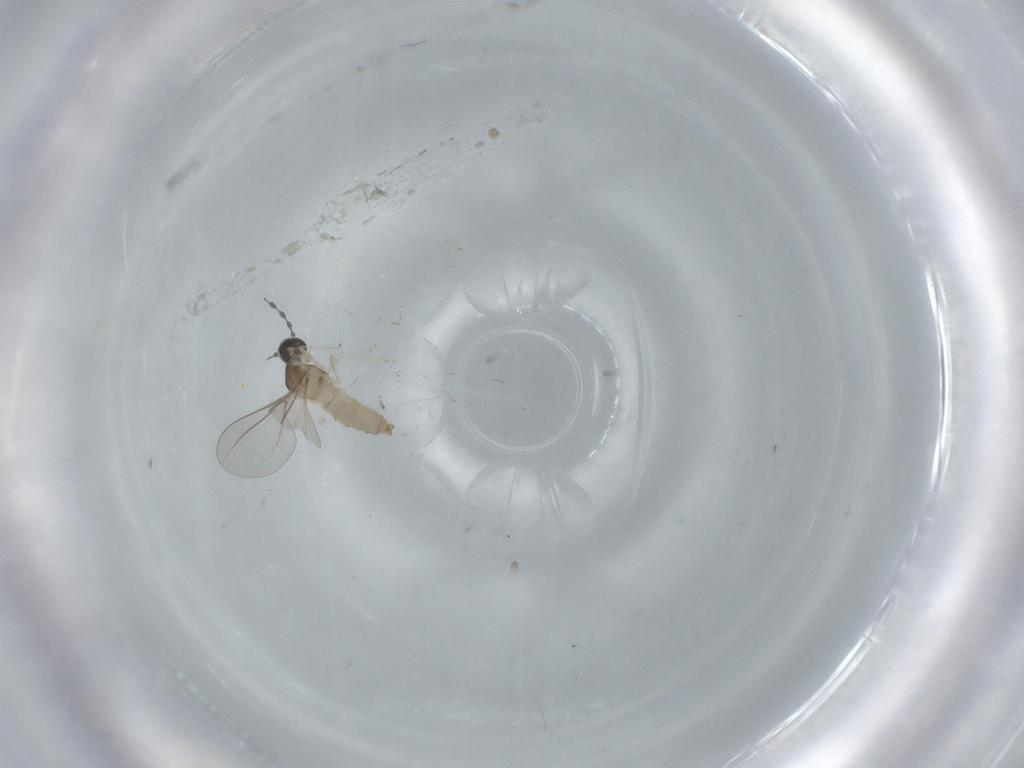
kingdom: Animalia
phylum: Arthropoda
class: Insecta
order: Diptera
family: Cecidomyiidae
